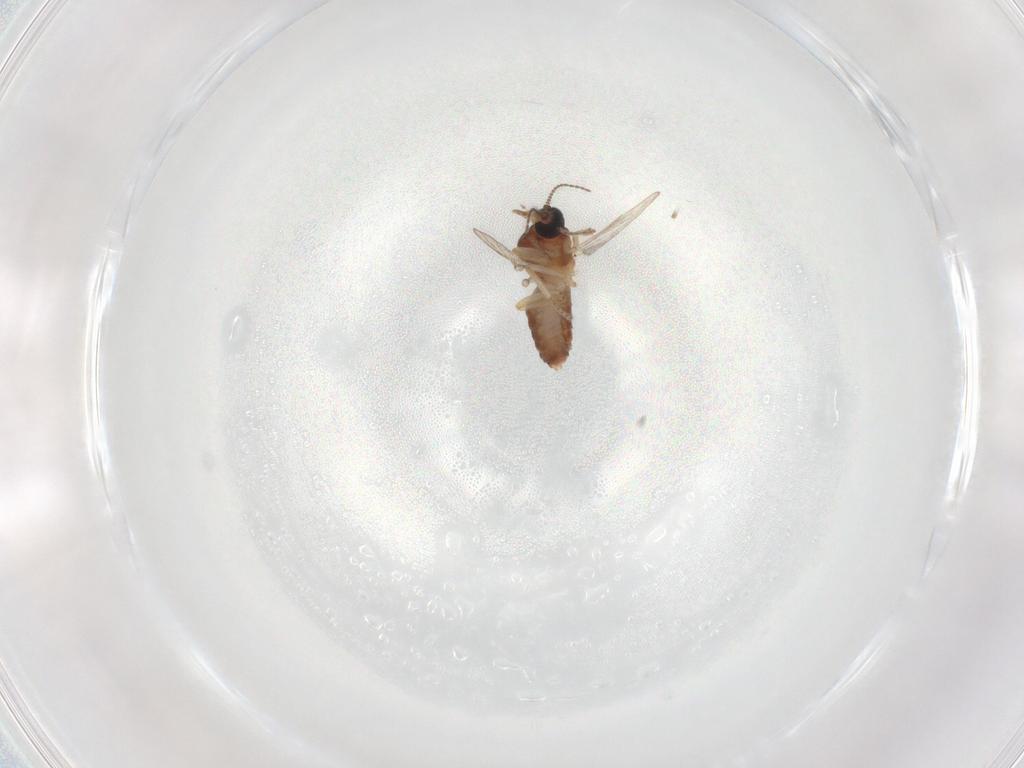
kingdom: Animalia
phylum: Arthropoda
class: Insecta
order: Diptera
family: Ceratopogonidae
